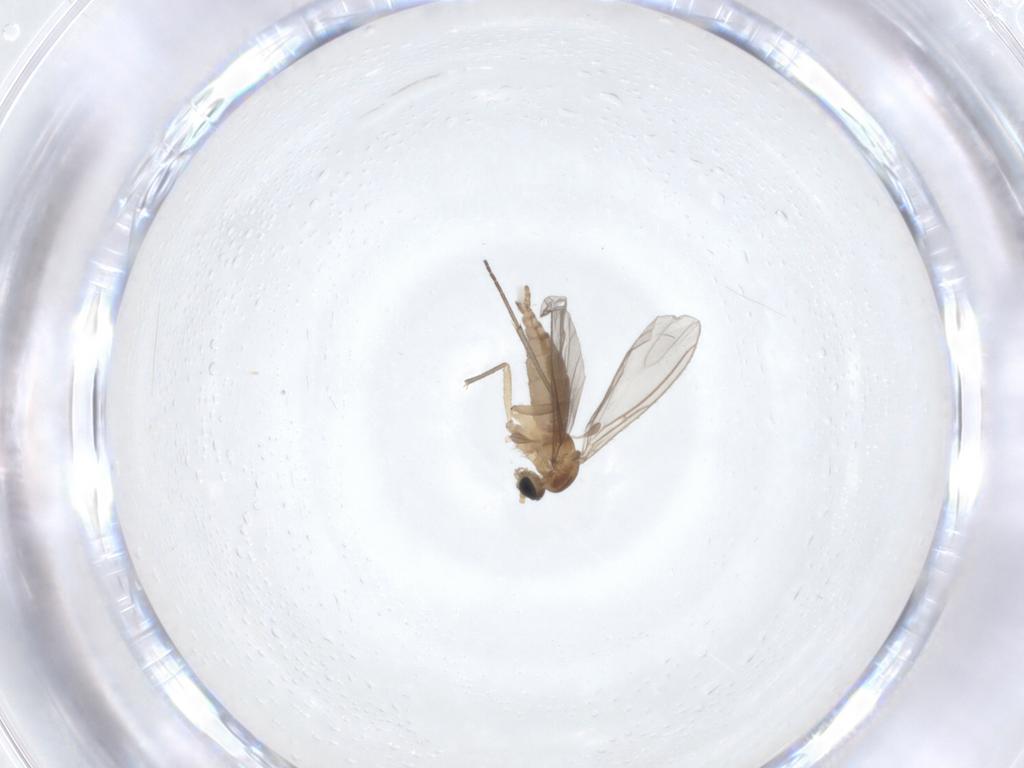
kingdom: Animalia
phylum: Arthropoda
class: Insecta
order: Diptera
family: Sciaridae
